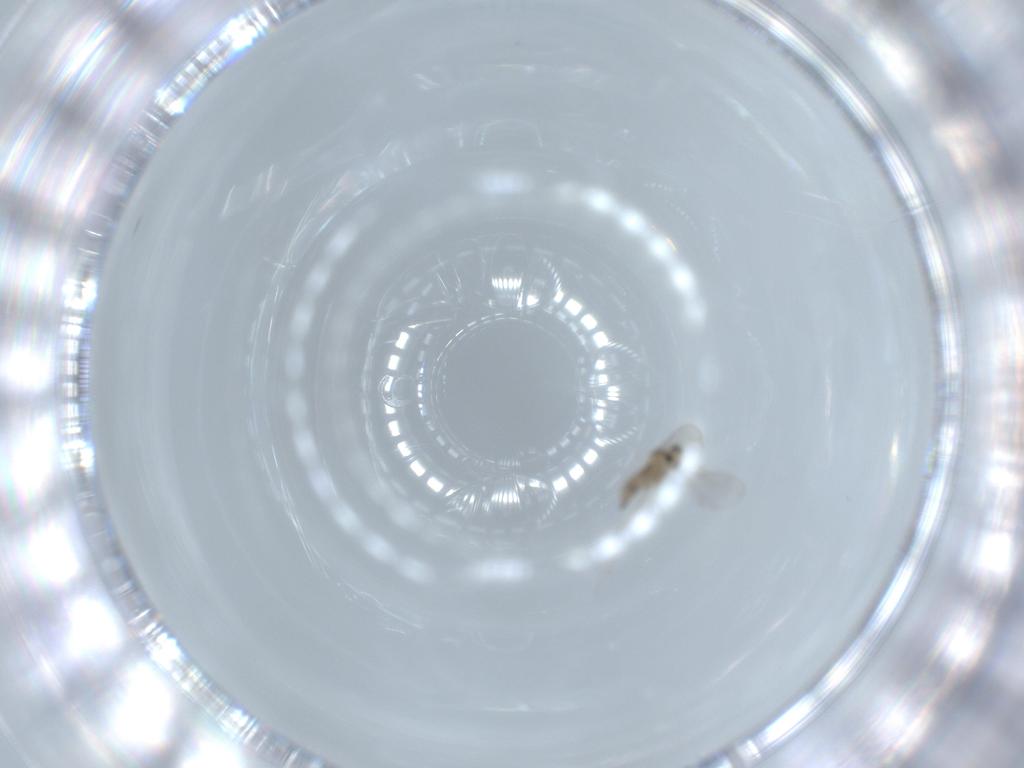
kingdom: Animalia
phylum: Arthropoda
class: Insecta
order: Diptera
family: Cecidomyiidae
